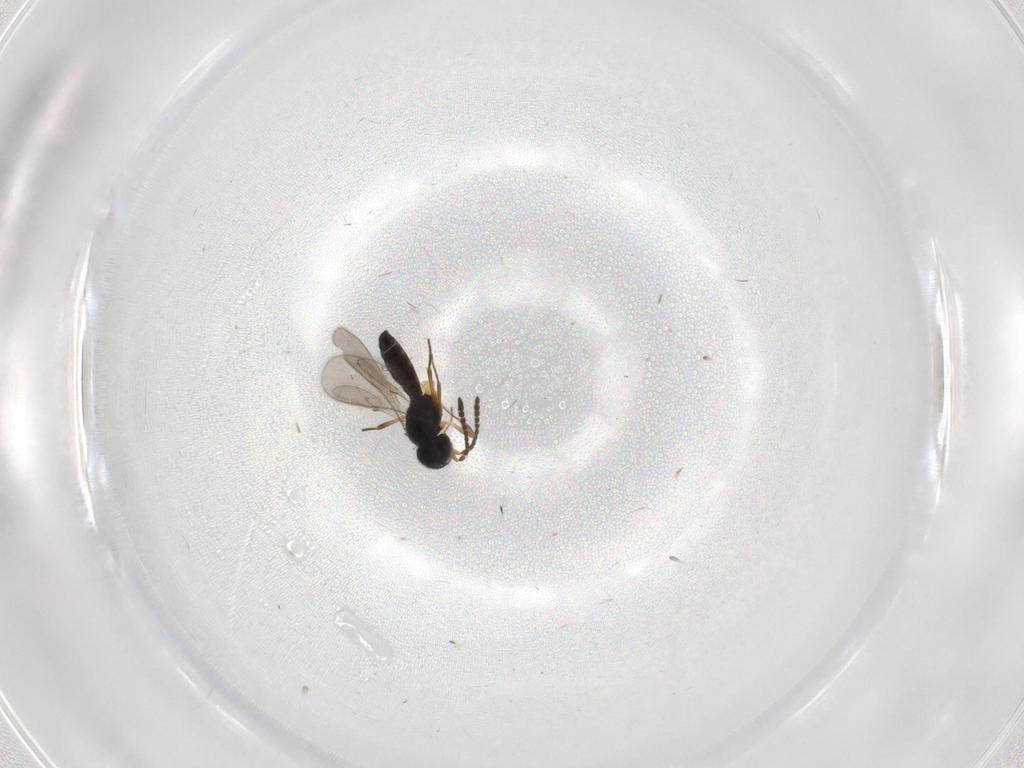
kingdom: Animalia
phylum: Arthropoda
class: Insecta
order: Hymenoptera
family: Scelionidae
